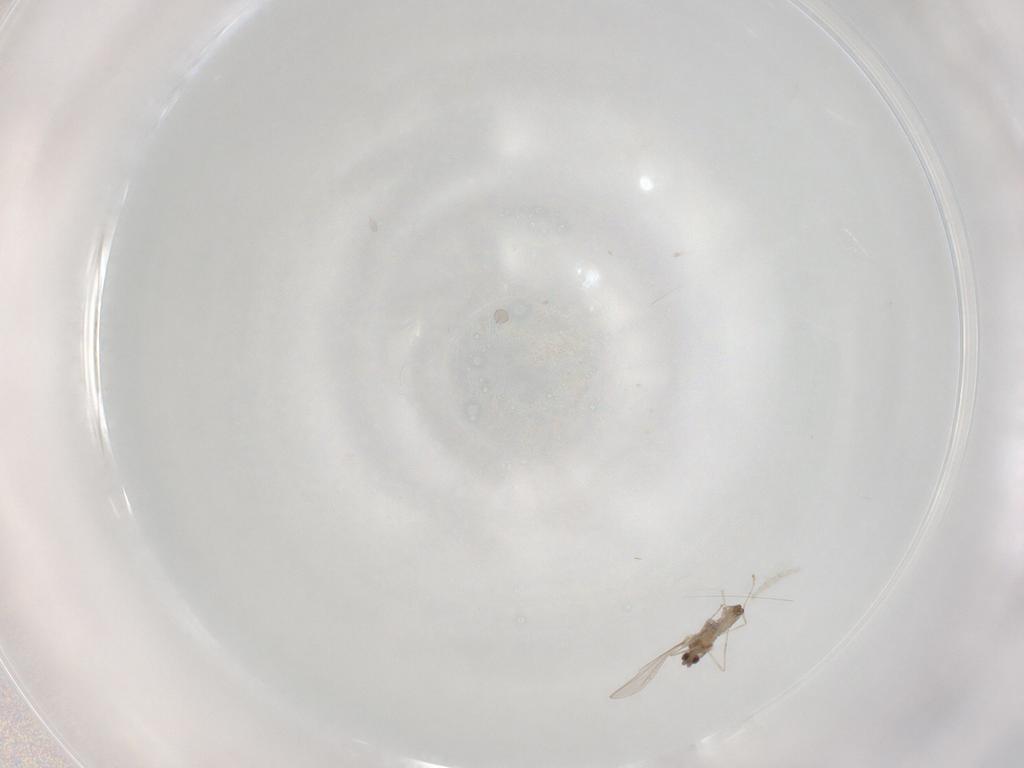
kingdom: Animalia
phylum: Arthropoda
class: Insecta
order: Diptera
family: Cecidomyiidae
